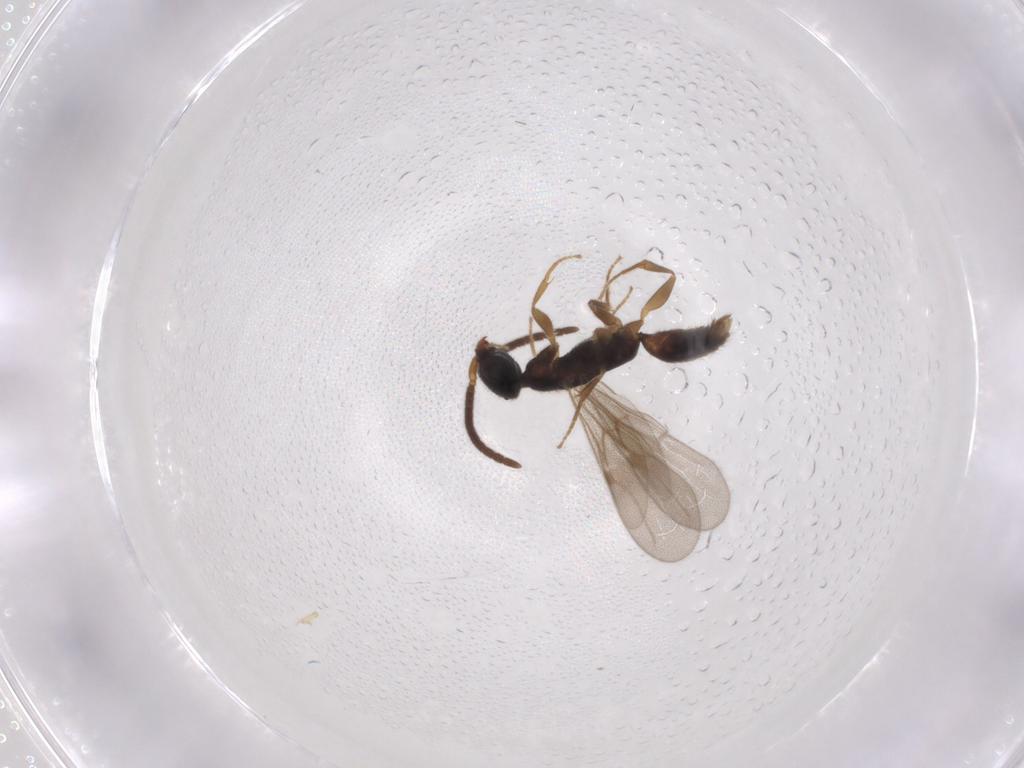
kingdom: Animalia
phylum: Arthropoda
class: Insecta
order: Hymenoptera
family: Bethylidae
